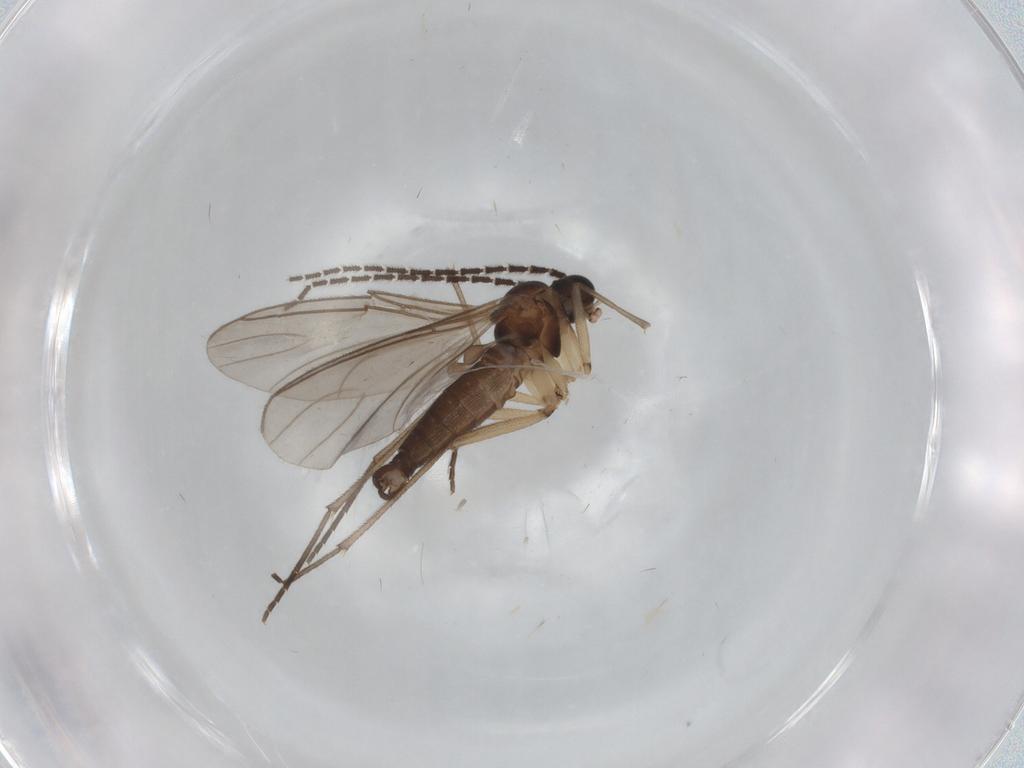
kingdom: Animalia
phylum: Arthropoda
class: Insecta
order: Diptera
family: Sciaridae
